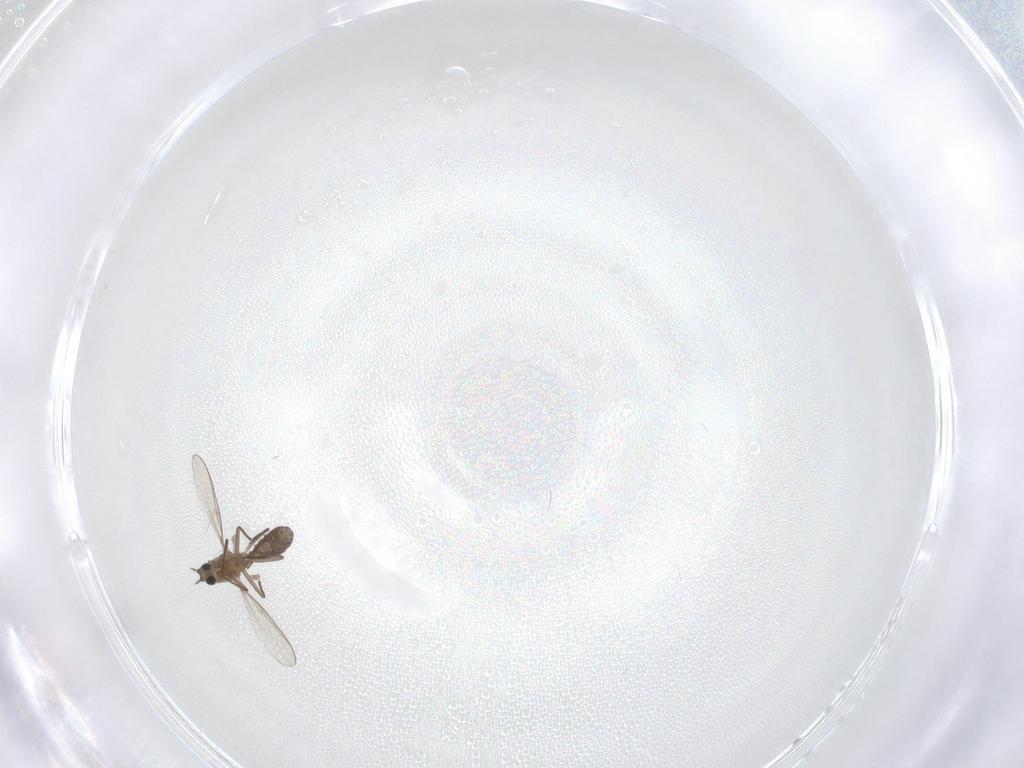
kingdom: Animalia
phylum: Arthropoda
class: Insecta
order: Diptera
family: Chironomidae
